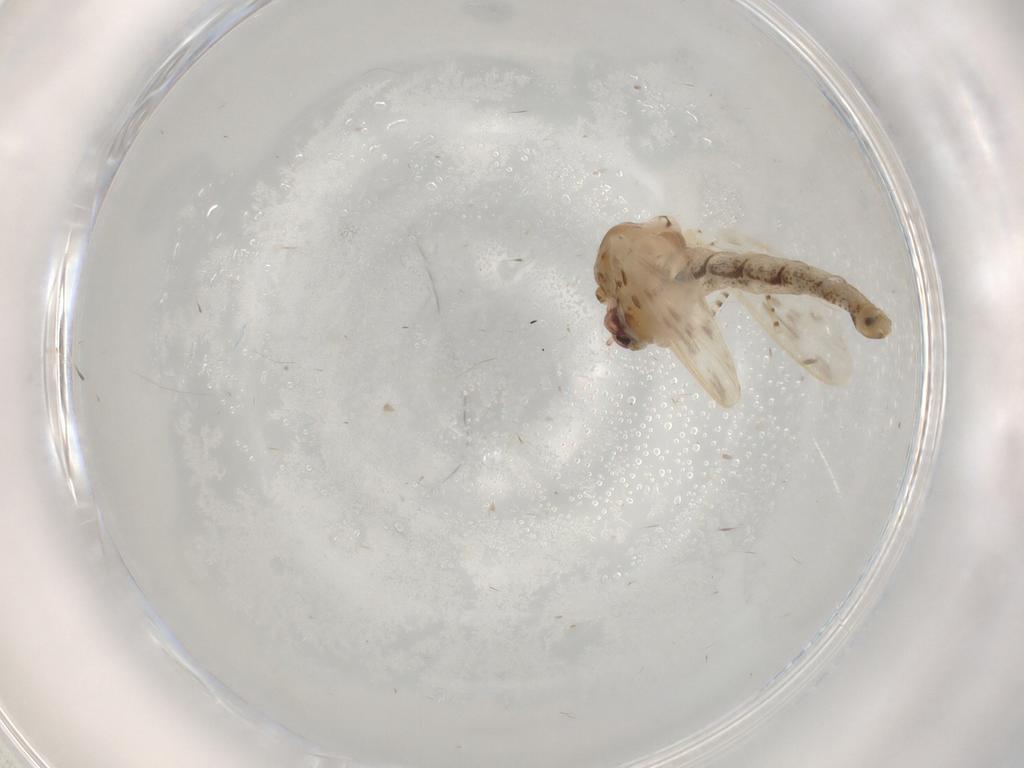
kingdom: Animalia
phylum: Arthropoda
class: Insecta
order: Diptera
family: Chaoboridae
